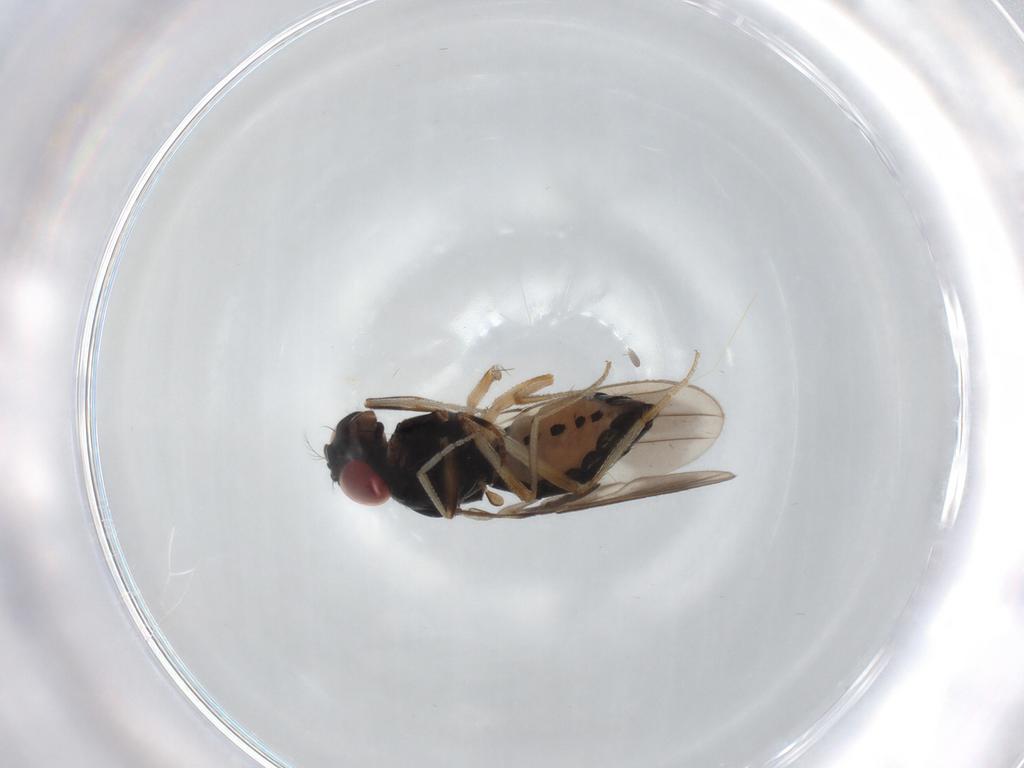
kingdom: Animalia
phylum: Arthropoda
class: Insecta
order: Diptera
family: Drosophilidae
